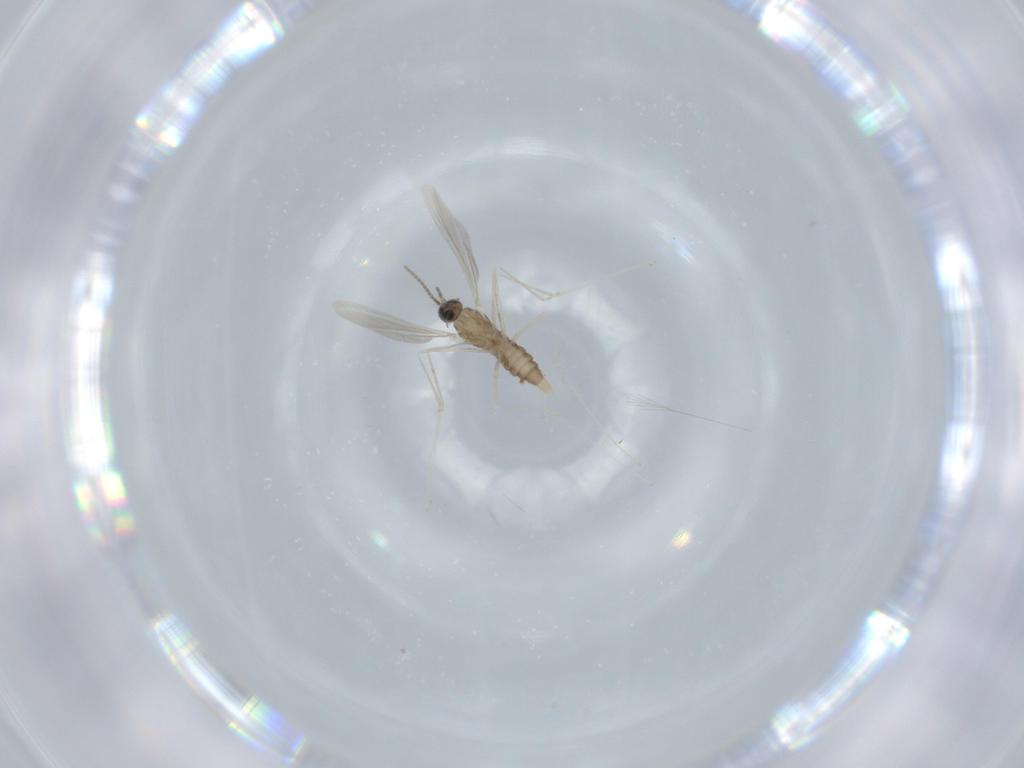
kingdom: Animalia
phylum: Arthropoda
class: Insecta
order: Diptera
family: Cecidomyiidae
